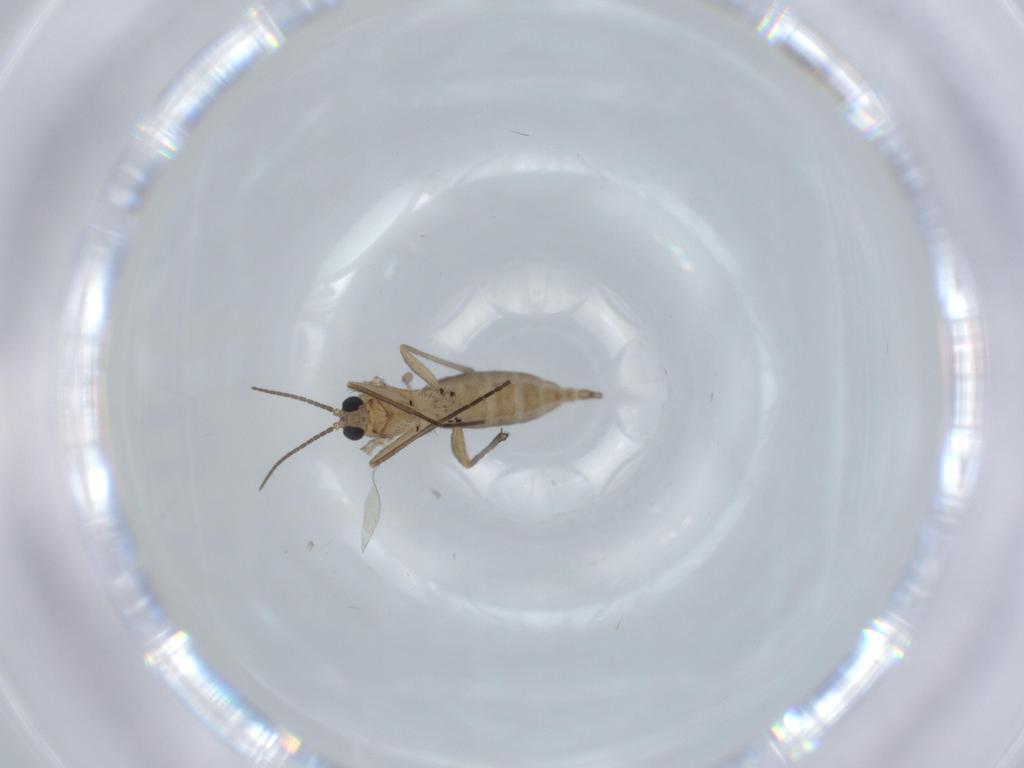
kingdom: Animalia
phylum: Arthropoda
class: Insecta
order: Diptera
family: Sciaridae
